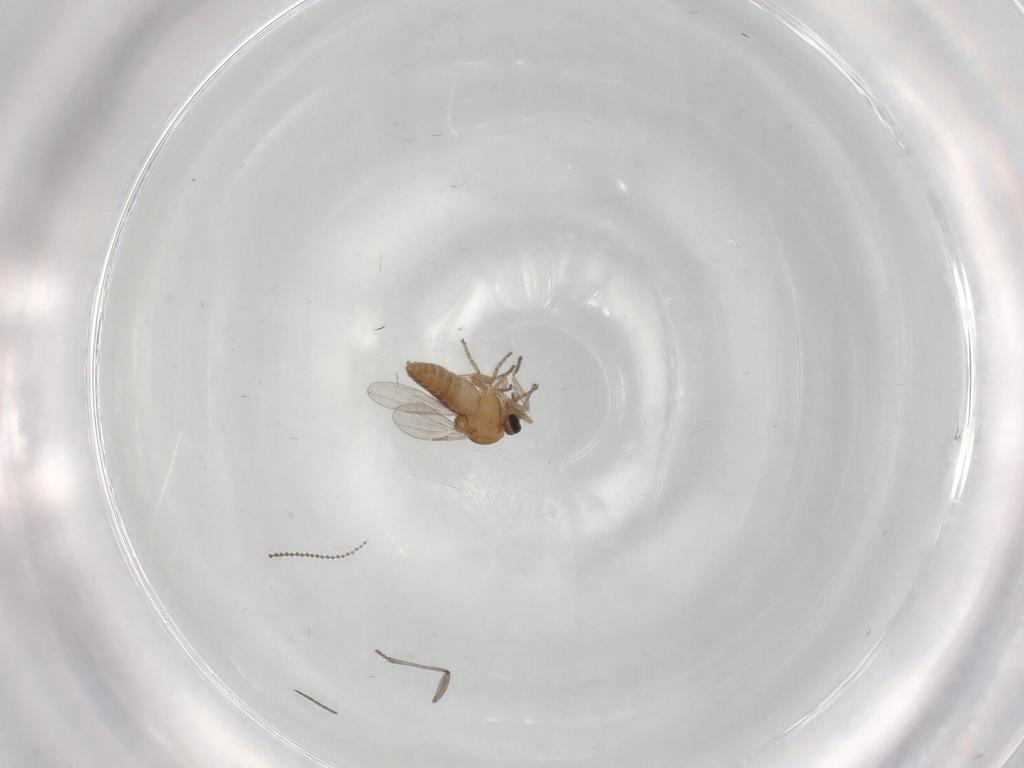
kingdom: Animalia
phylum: Arthropoda
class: Insecta
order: Diptera
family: Ceratopogonidae
